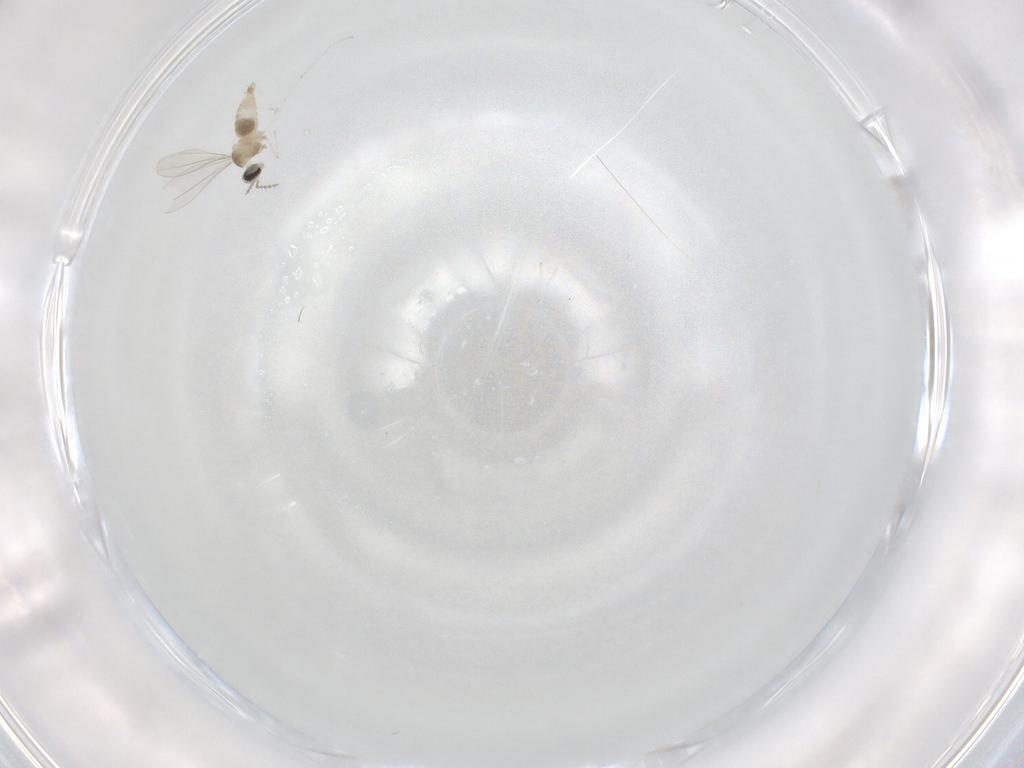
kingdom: Animalia
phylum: Arthropoda
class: Insecta
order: Diptera
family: Cecidomyiidae
